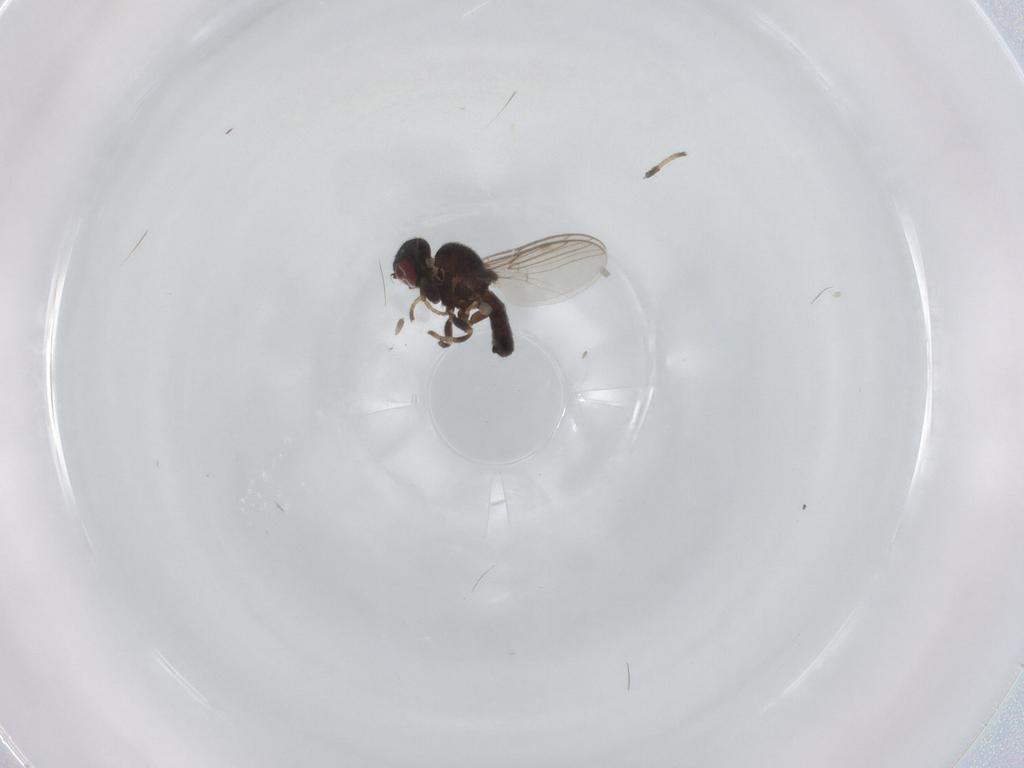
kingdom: Animalia
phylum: Arthropoda
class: Insecta
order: Diptera
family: Chloropidae
